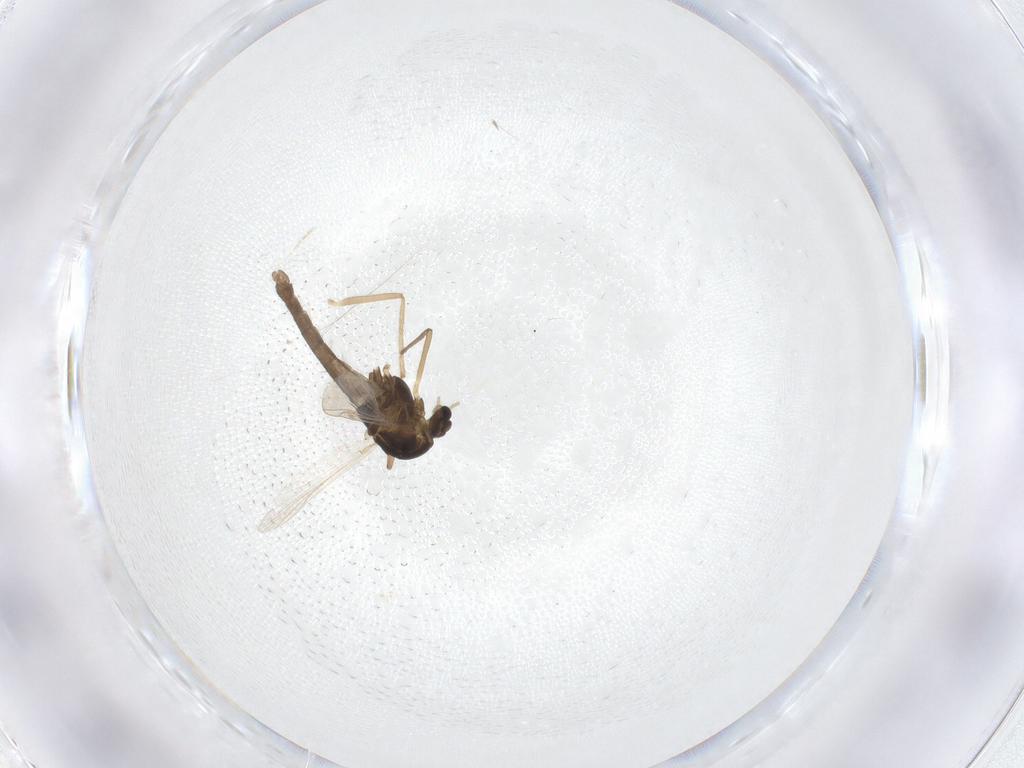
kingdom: Animalia
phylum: Arthropoda
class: Insecta
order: Diptera
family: Chironomidae
